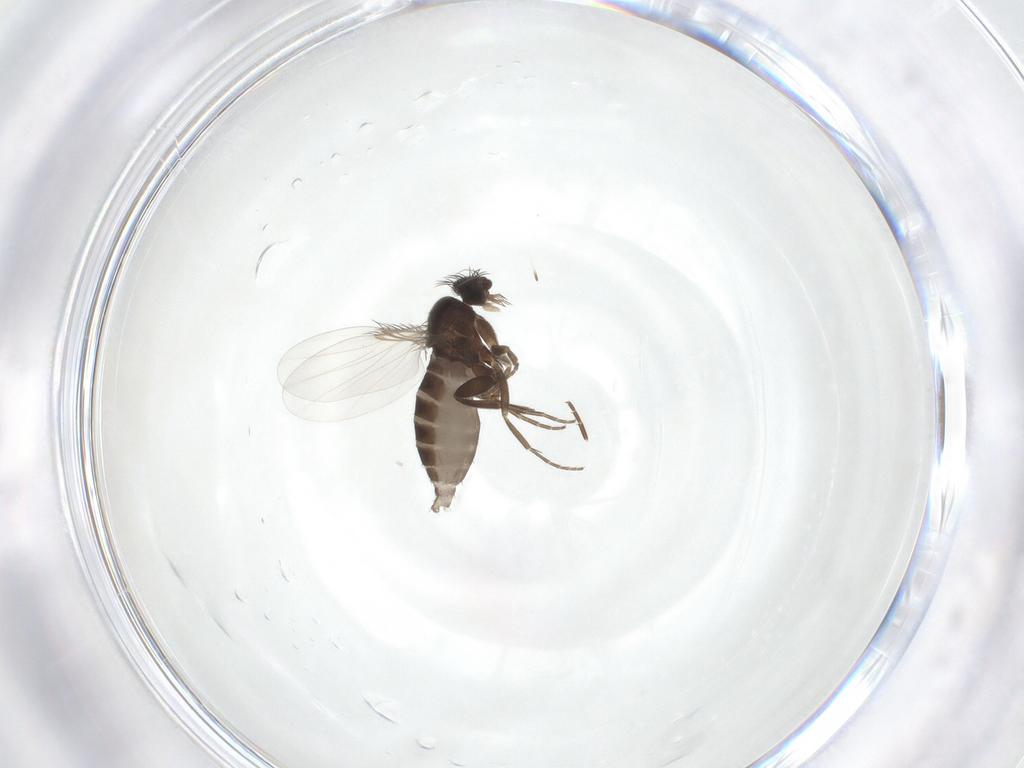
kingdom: Animalia
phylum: Arthropoda
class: Insecta
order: Diptera
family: Phoridae
